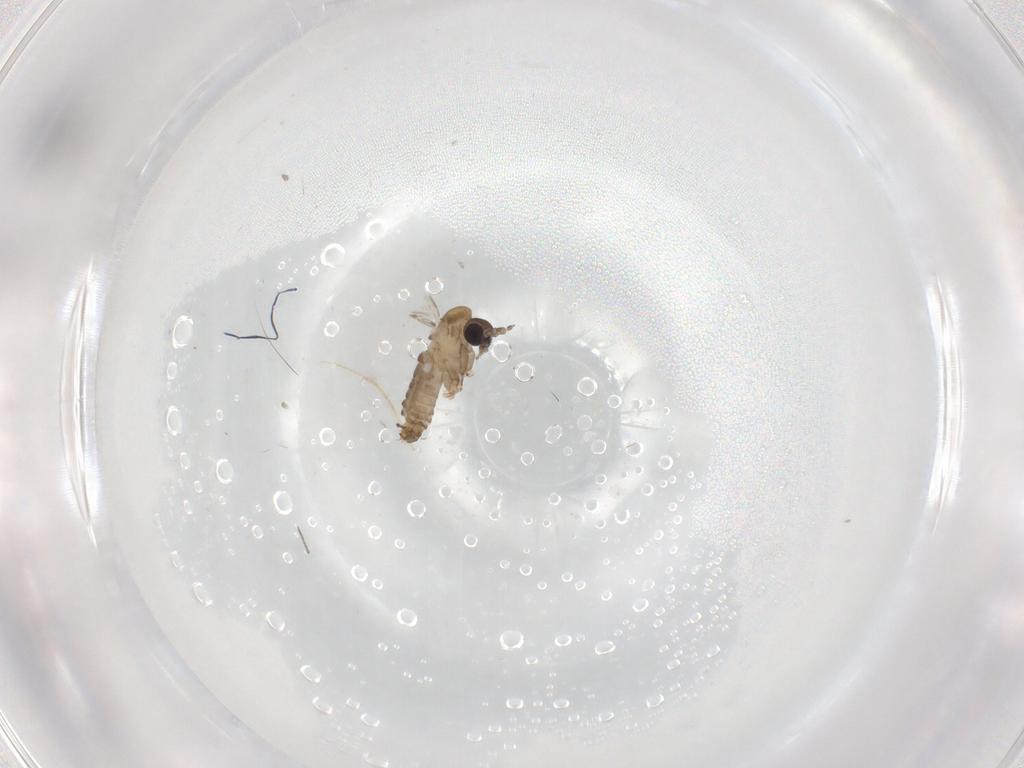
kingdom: Animalia
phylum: Arthropoda
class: Insecta
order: Diptera
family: Psychodidae
